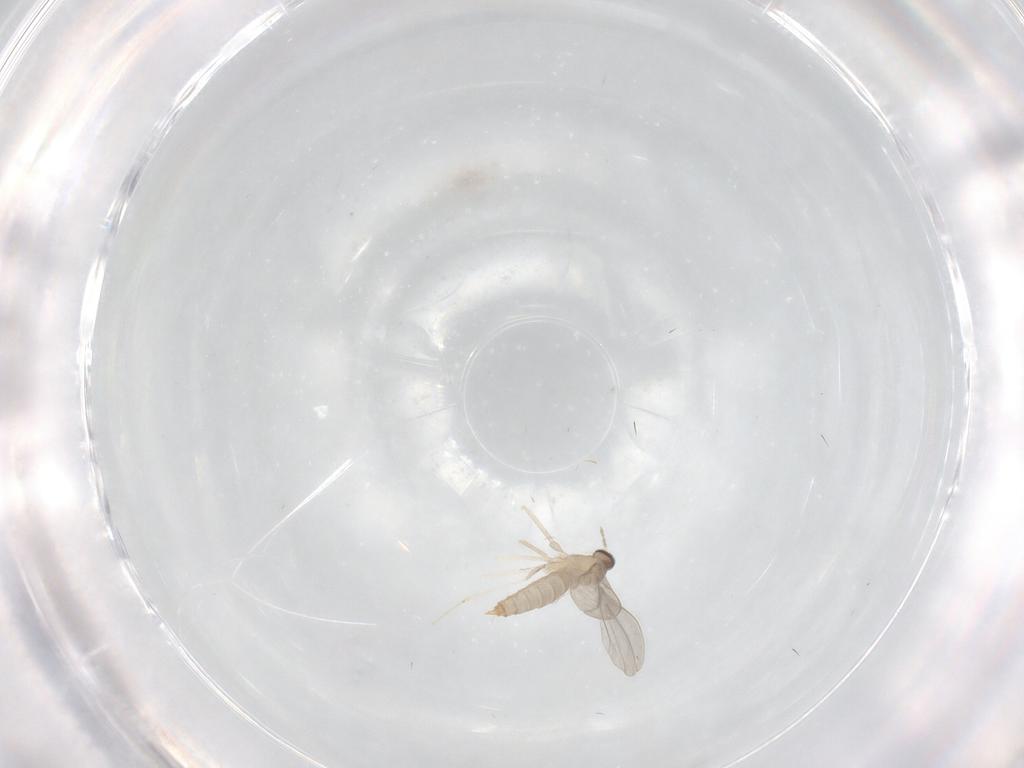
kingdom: Animalia
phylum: Arthropoda
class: Insecta
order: Diptera
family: Cecidomyiidae
